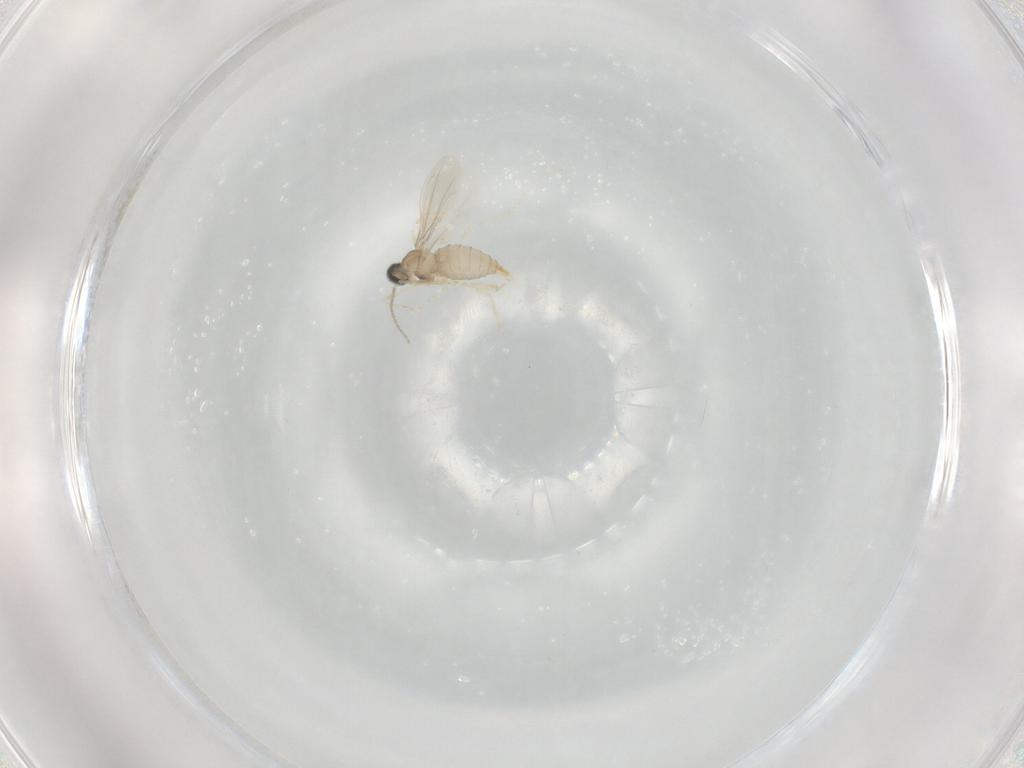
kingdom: Animalia
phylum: Arthropoda
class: Insecta
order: Diptera
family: Cecidomyiidae
